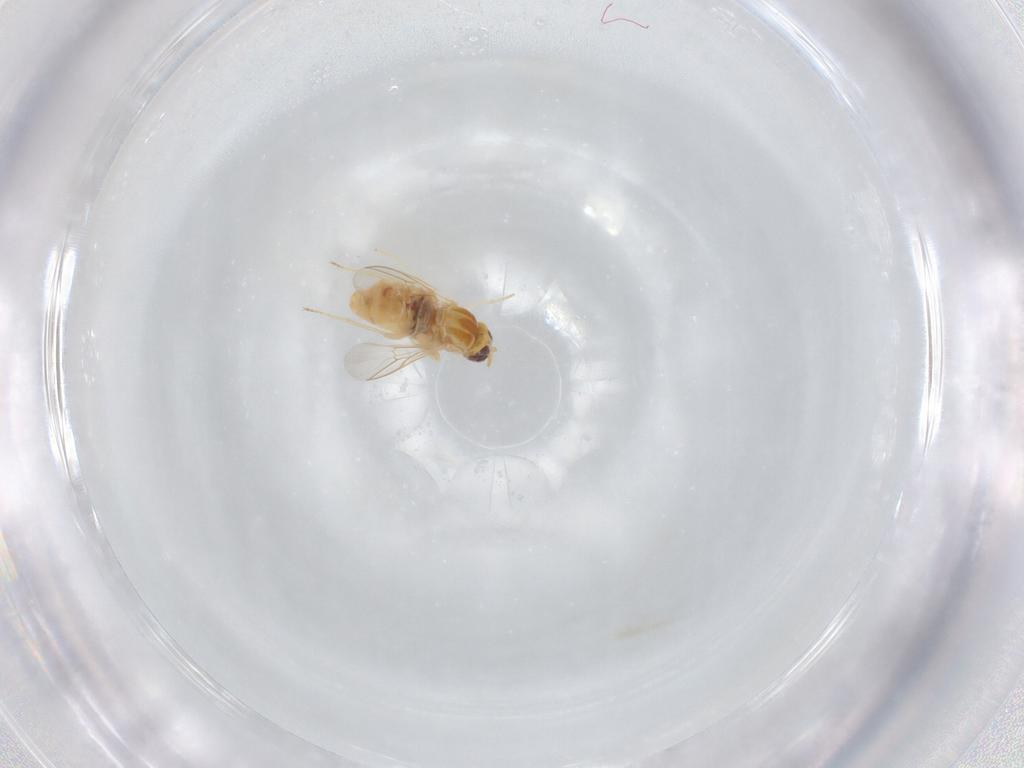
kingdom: Animalia
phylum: Arthropoda
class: Insecta
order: Diptera
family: Mythicomyiidae
